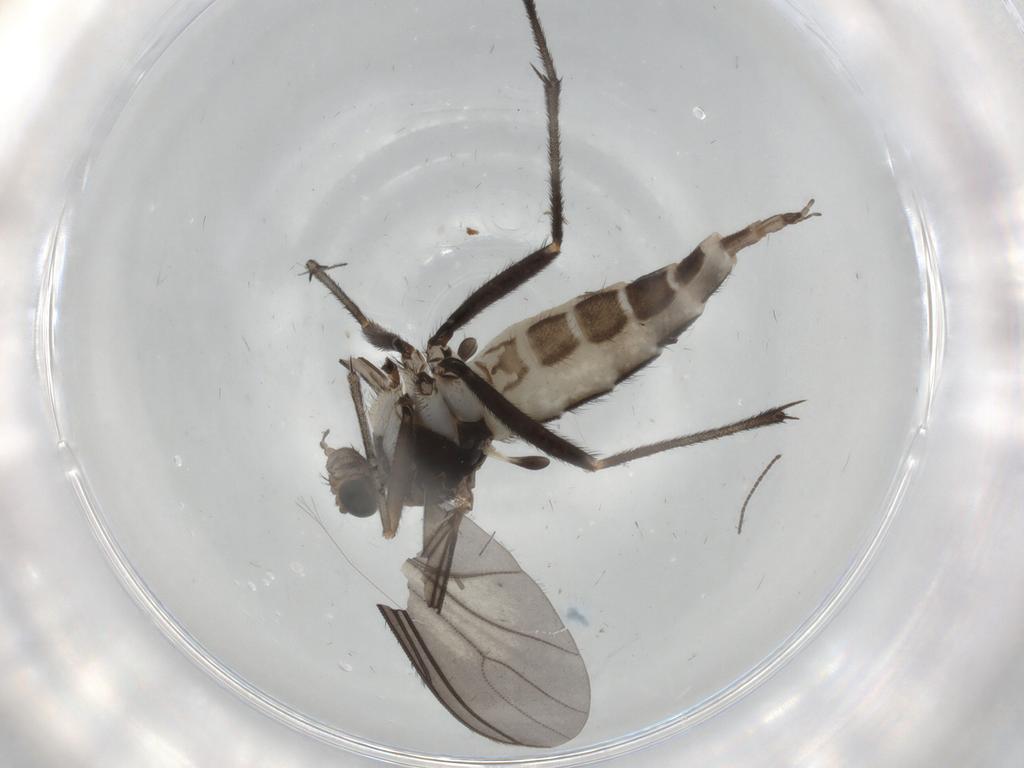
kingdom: Animalia
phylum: Arthropoda
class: Insecta
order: Diptera
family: Sciaridae
